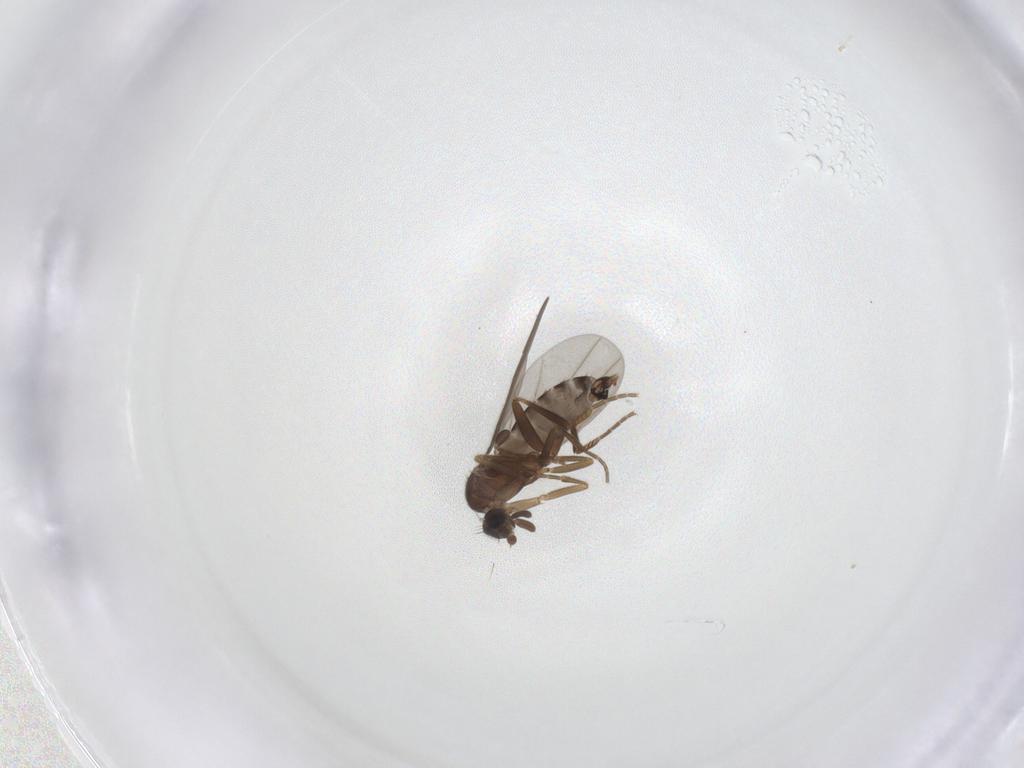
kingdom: Animalia
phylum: Arthropoda
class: Insecta
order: Diptera
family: Phoridae
